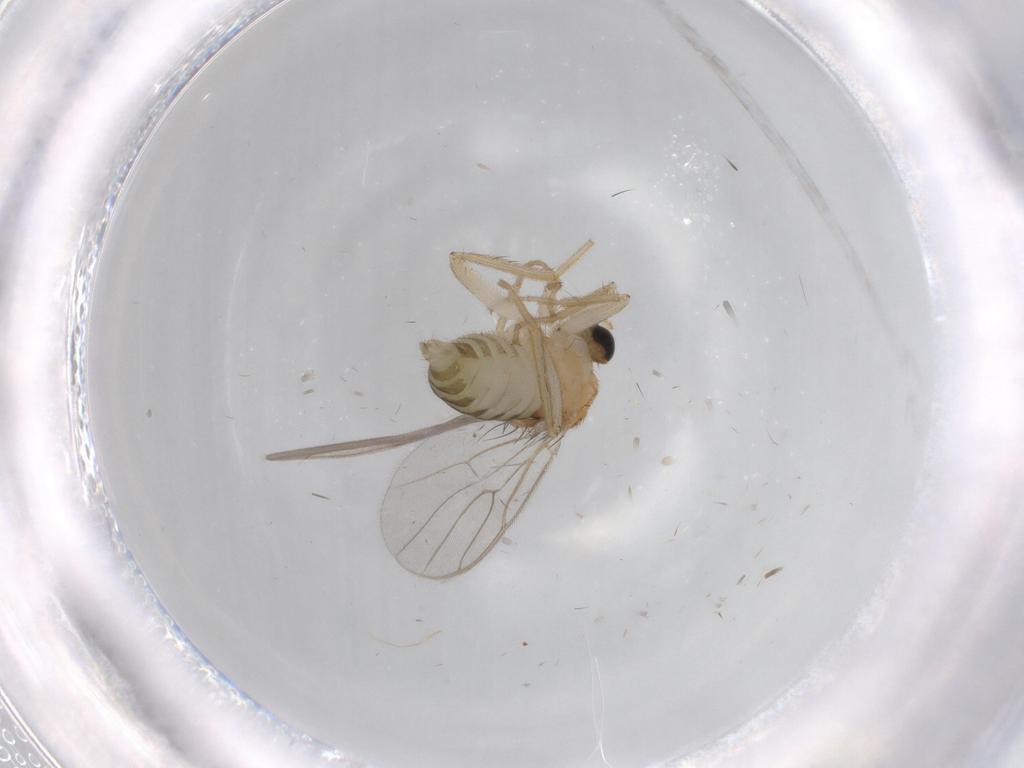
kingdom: Animalia
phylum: Arthropoda
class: Insecta
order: Diptera
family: Hybotidae
